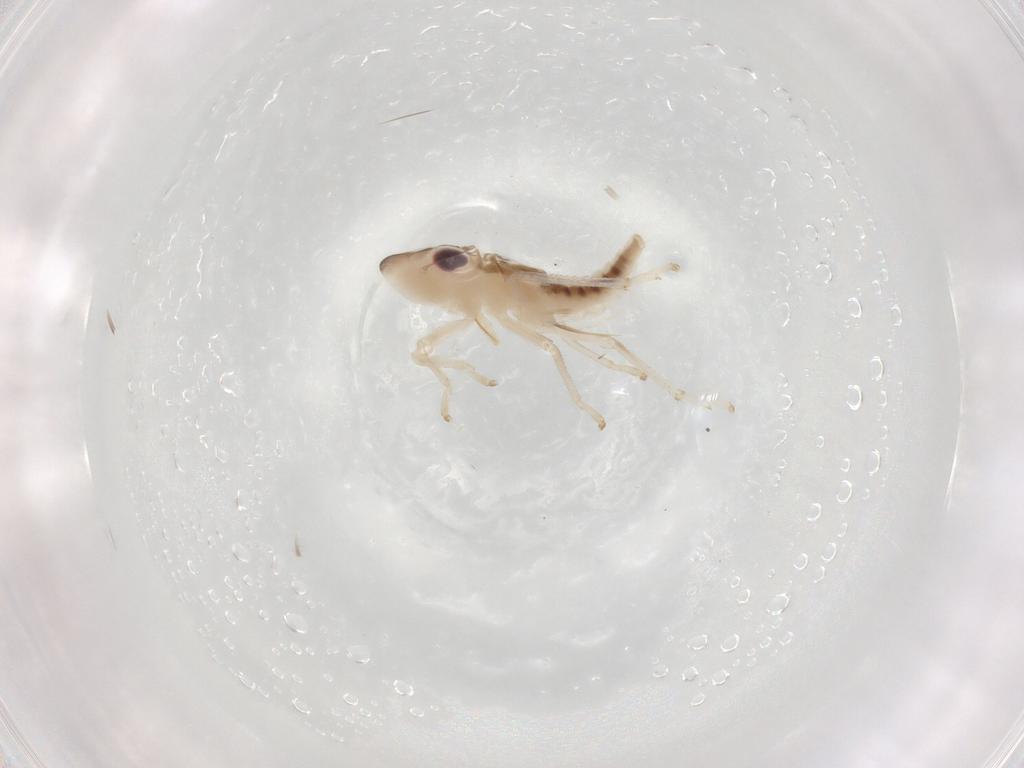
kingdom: Animalia
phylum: Arthropoda
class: Insecta
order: Hemiptera
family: Cicadellidae
